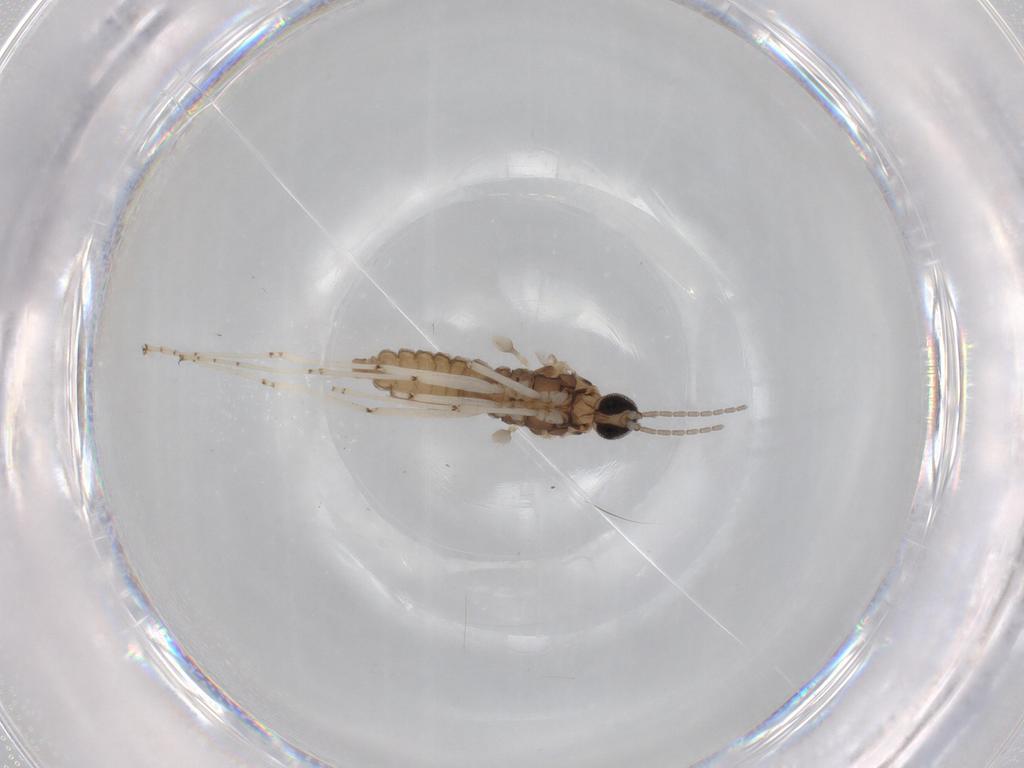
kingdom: Animalia
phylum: Arthropoda
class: Insecta
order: Diptera
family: Cecidomyiidae
